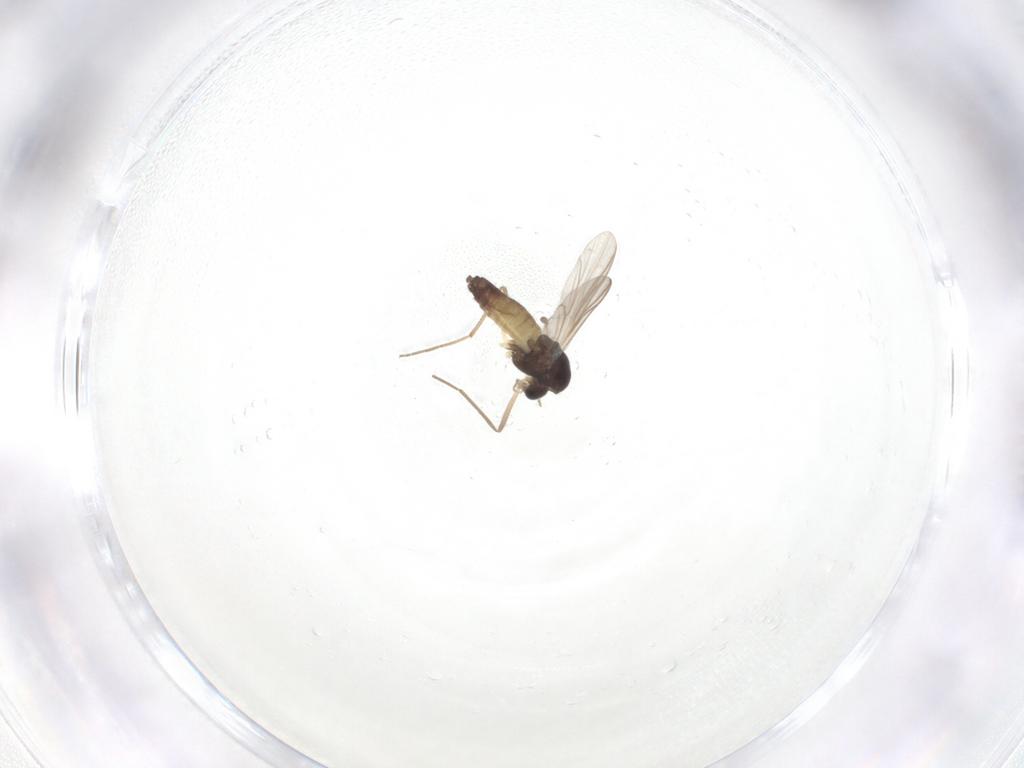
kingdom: Animalia
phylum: Arthropoda
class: Insecta
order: Diptera
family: Chironomidae
